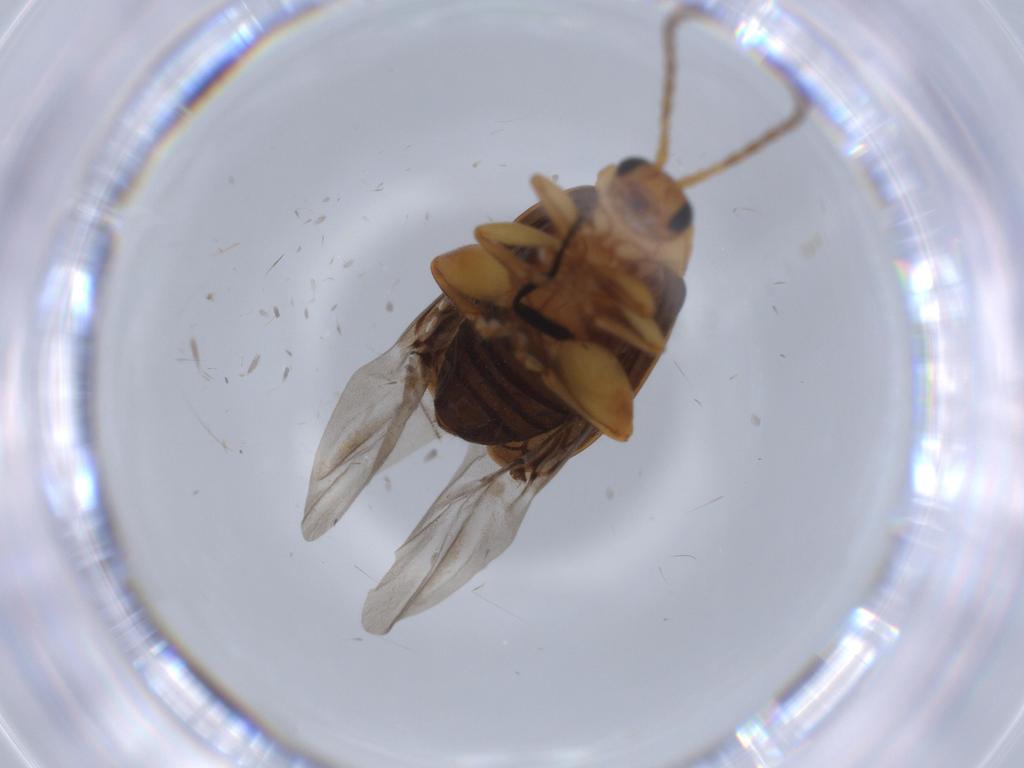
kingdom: Animalia
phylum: Arthropoda
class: Insecta
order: Coleoptera
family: Chrysomelidae
